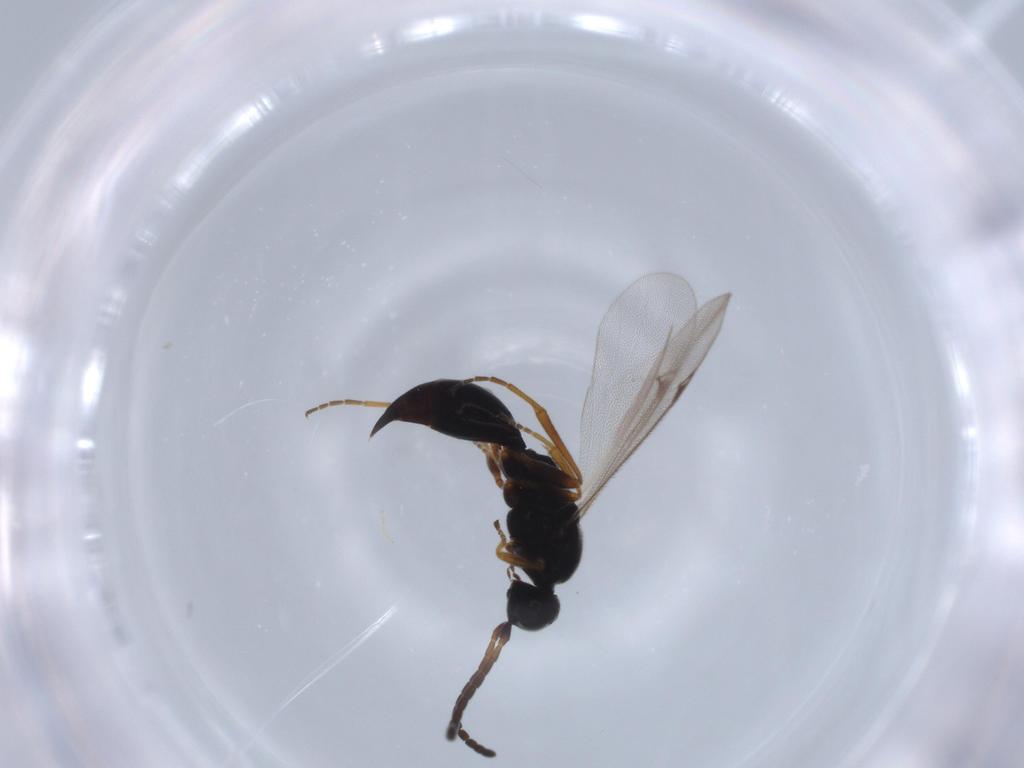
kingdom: Animalia
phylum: Arthropoda
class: Insecta
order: Hymenoptera
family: Proctotrupidae
